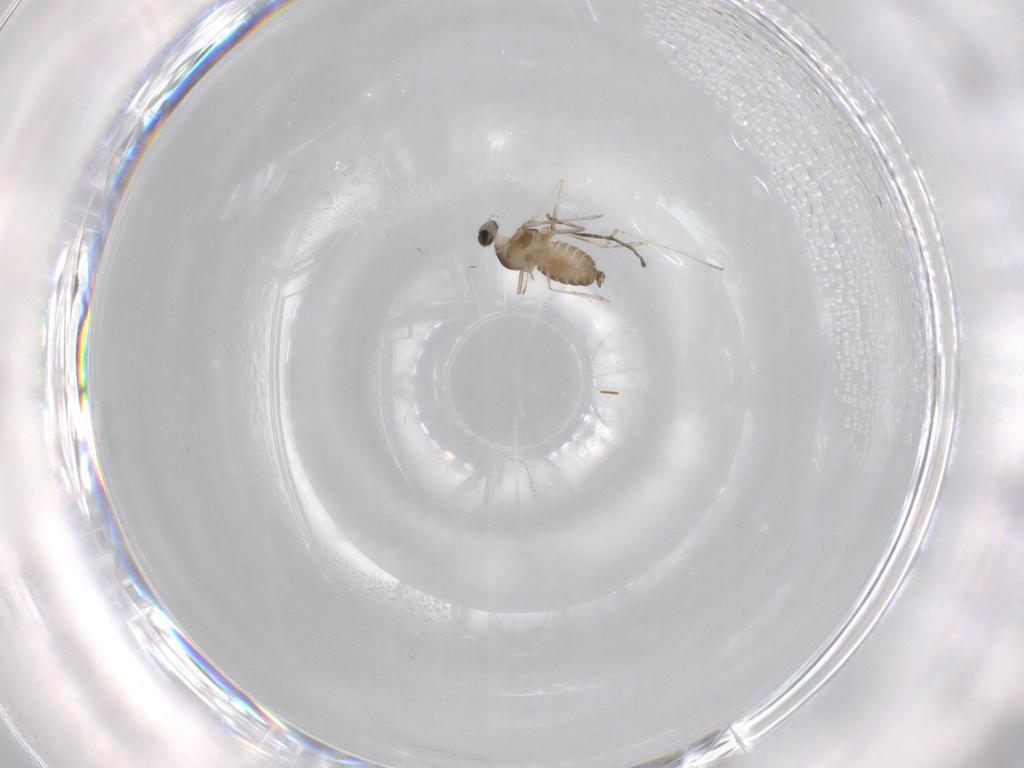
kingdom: Animalia
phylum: Arthropoda
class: Insecta
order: Diptera
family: Cecidomyiidae
